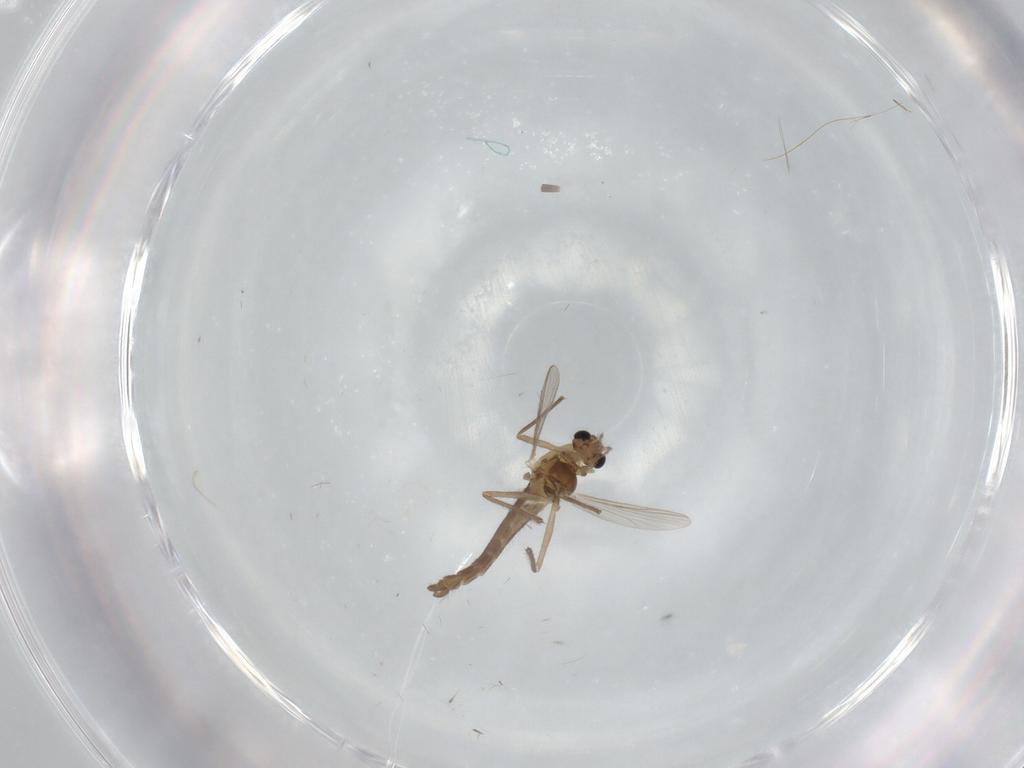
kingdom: Animalia
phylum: Arthropoda
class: Insecta
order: Diptera
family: Chironomidae
